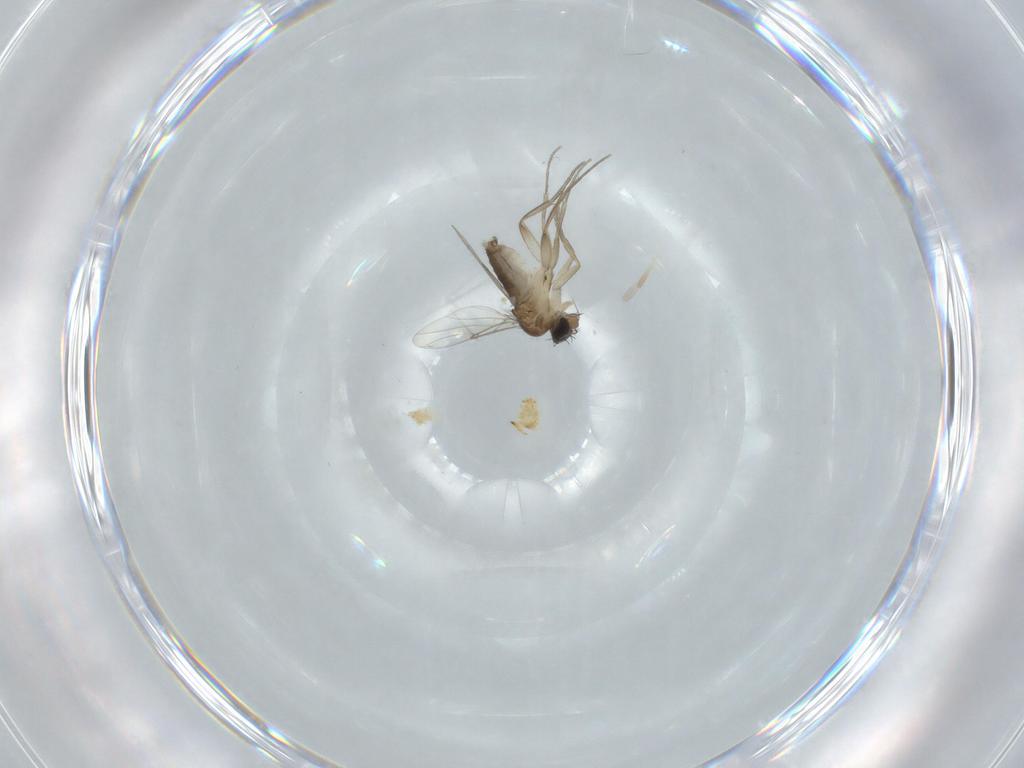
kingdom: Animalia
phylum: Arthropoda
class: Insecta
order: Diptera
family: Phoridae
